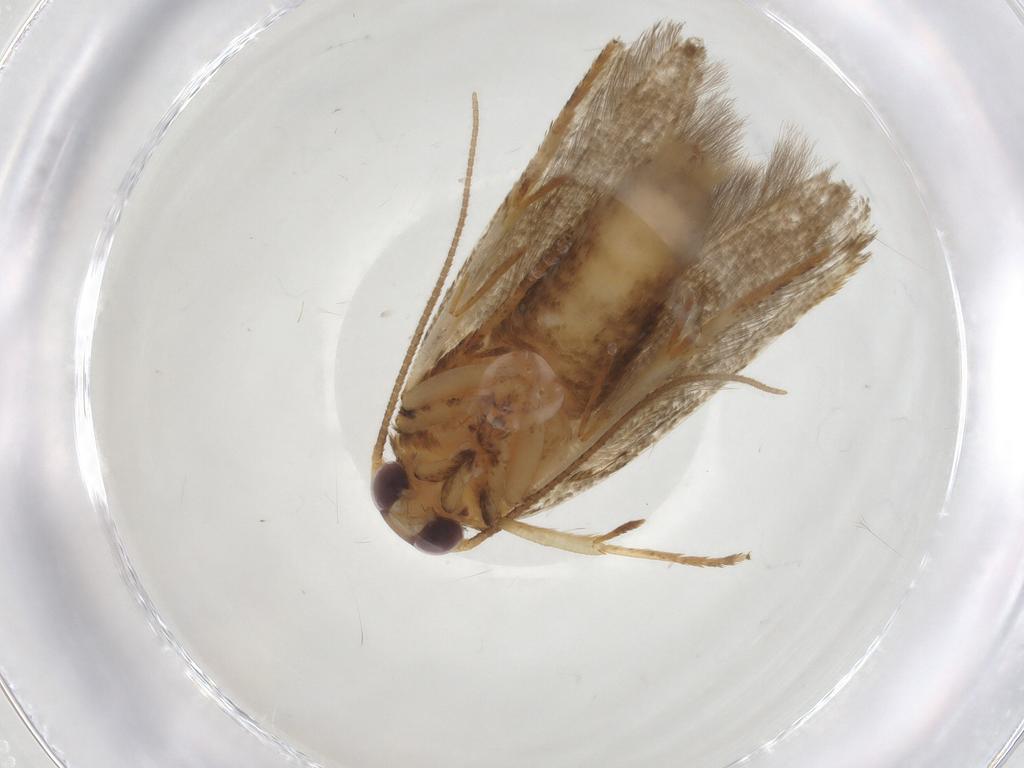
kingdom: Animalia
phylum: Arthropoda
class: Insecta
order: Lepidoptera
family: Blastobasidae
